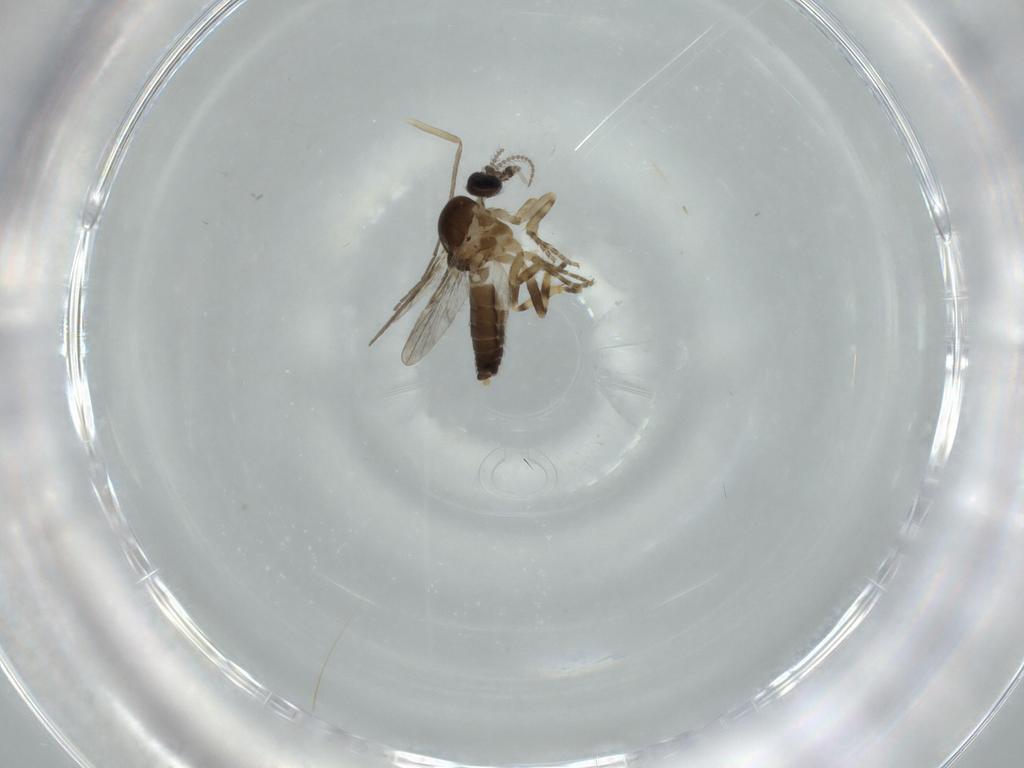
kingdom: Animalia
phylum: Arthropoda
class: Insecta
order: Diptera
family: Chironomidae
